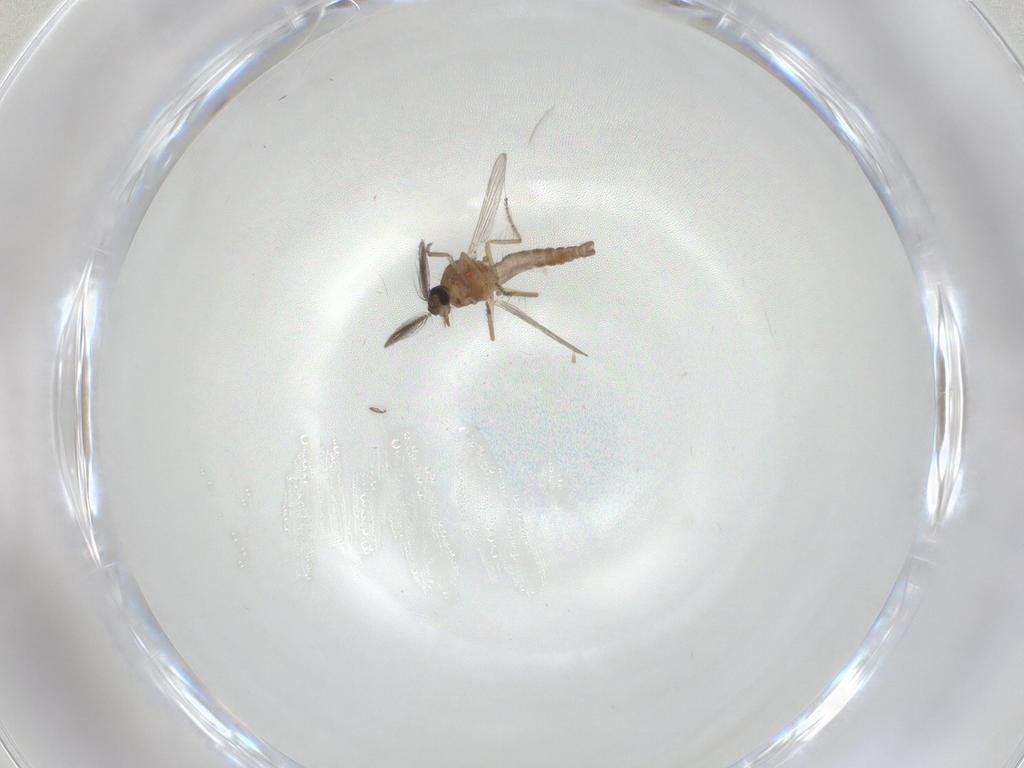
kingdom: Animalia
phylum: Arthropoda
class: Insecta
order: Diptera
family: Ceratopogonidae
